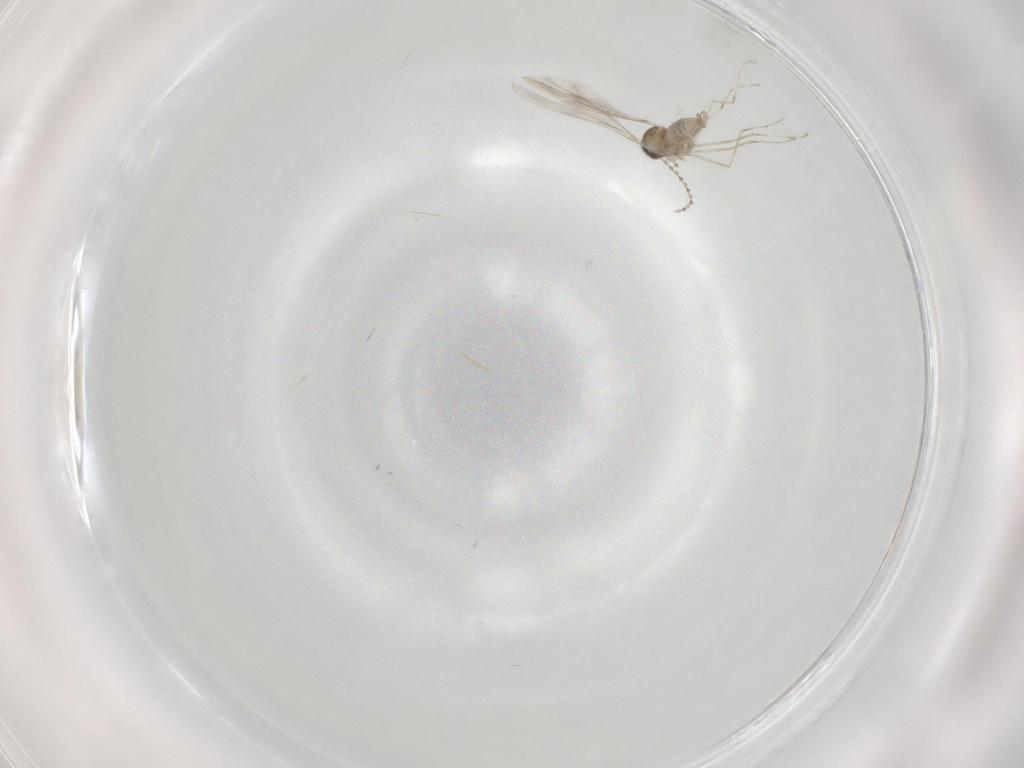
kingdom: Animalia
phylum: Arthropoda
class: Insecta
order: Diptera
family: Cecidomyiidae
